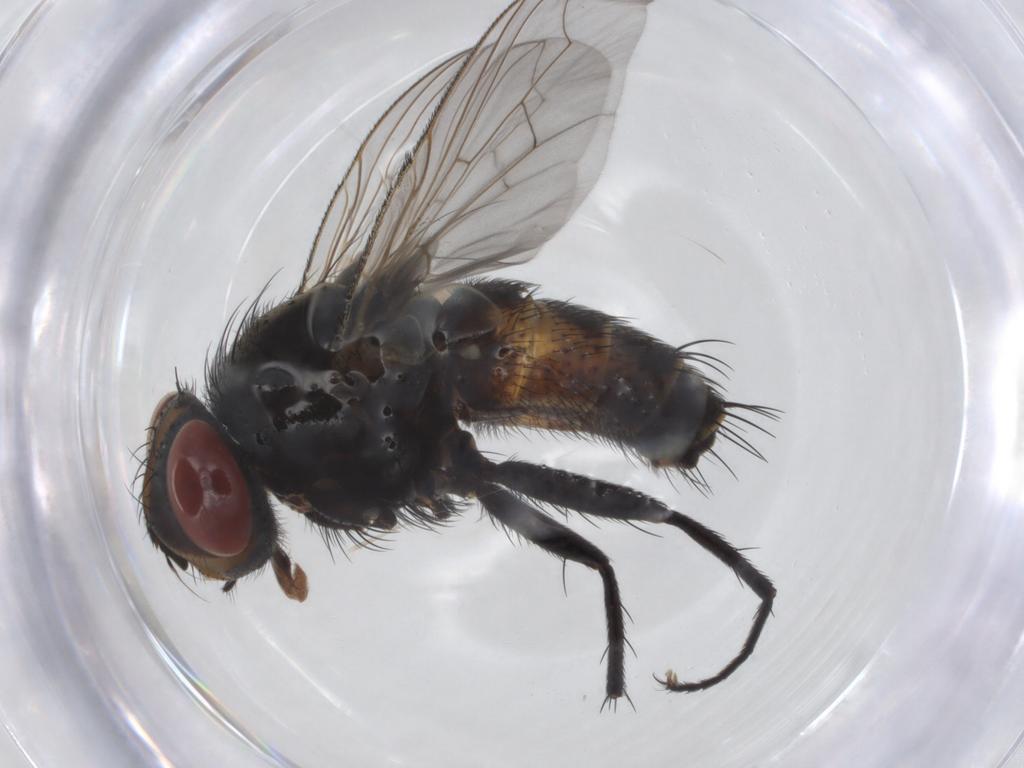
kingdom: Animalia
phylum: Arthropoda
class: Insecta
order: Diptera
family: Sarcophagidae
